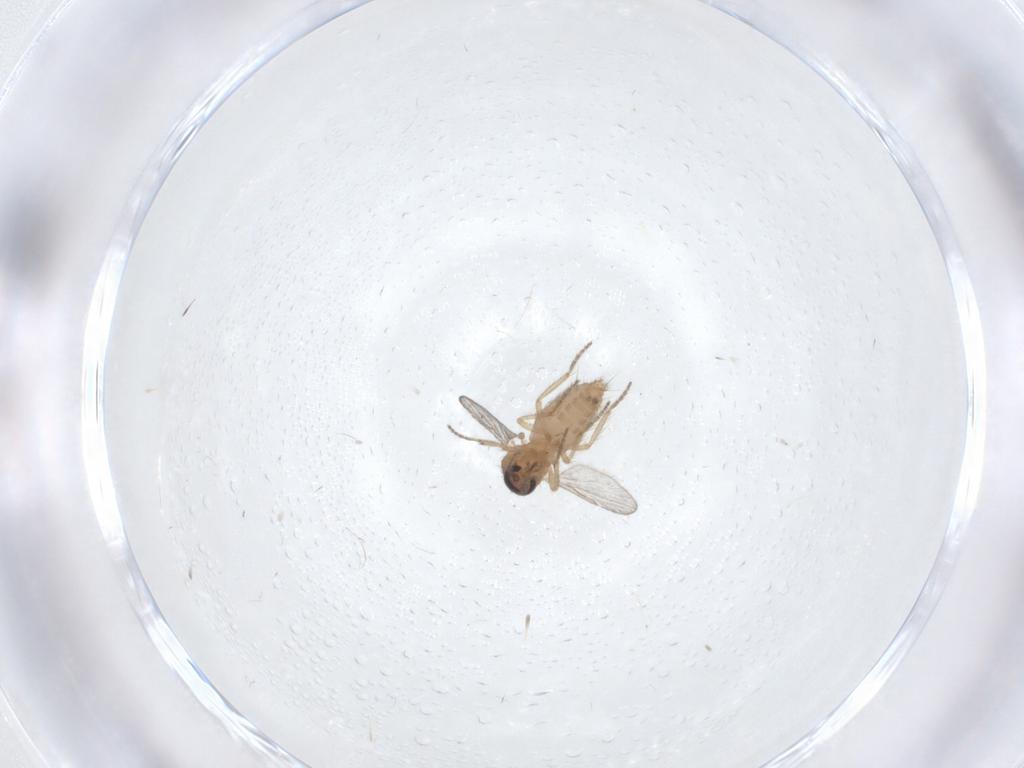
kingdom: Animalia
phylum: Arthropoda
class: Insecta
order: Diptera
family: Ceratopogonidae
